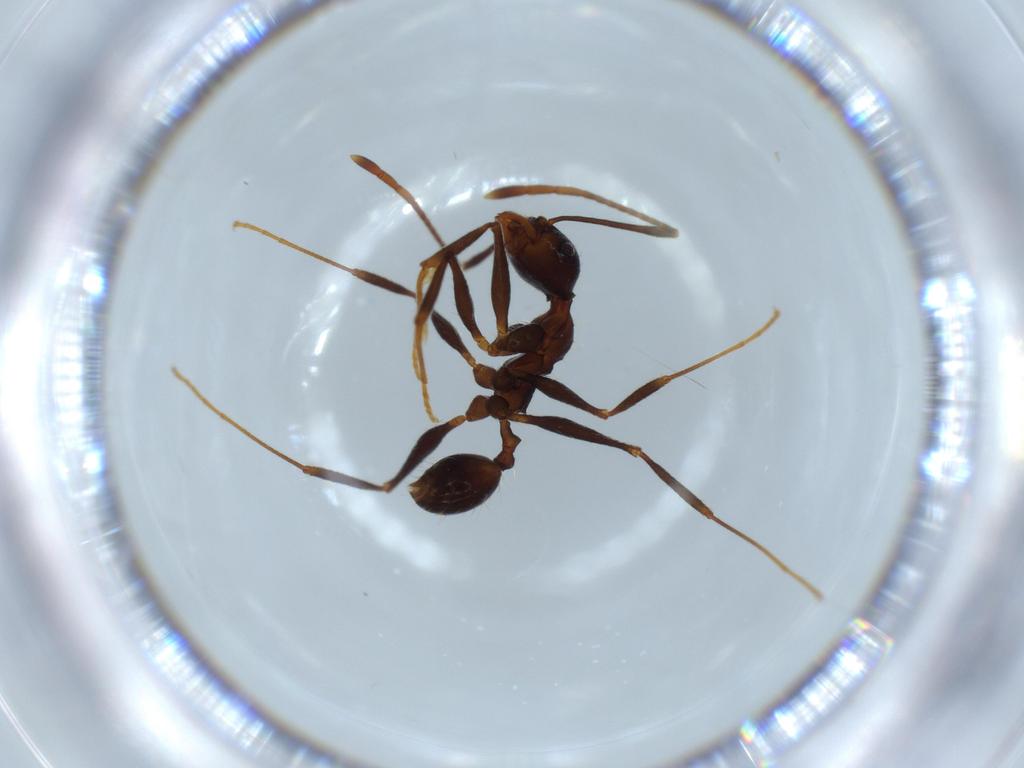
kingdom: Animalia
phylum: Arthropoda
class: Insecta
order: Hymenoptera
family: Formicidae
